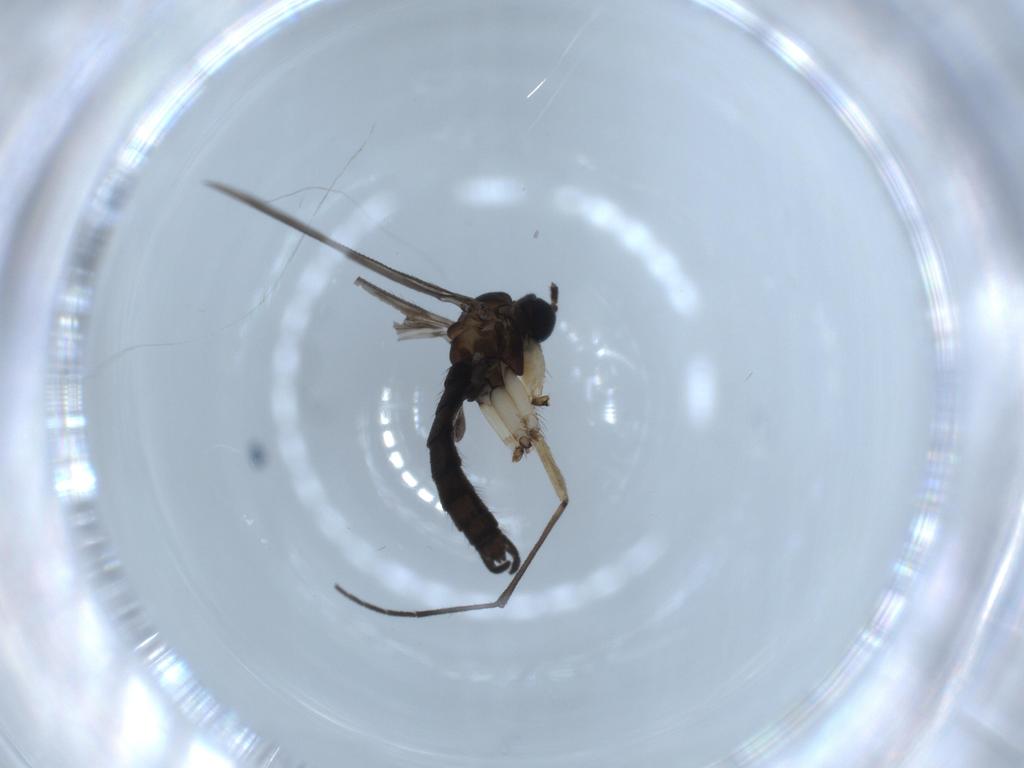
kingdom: Animalia
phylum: Arthropoda
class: Insecta
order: Diptera
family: Sciaridae
